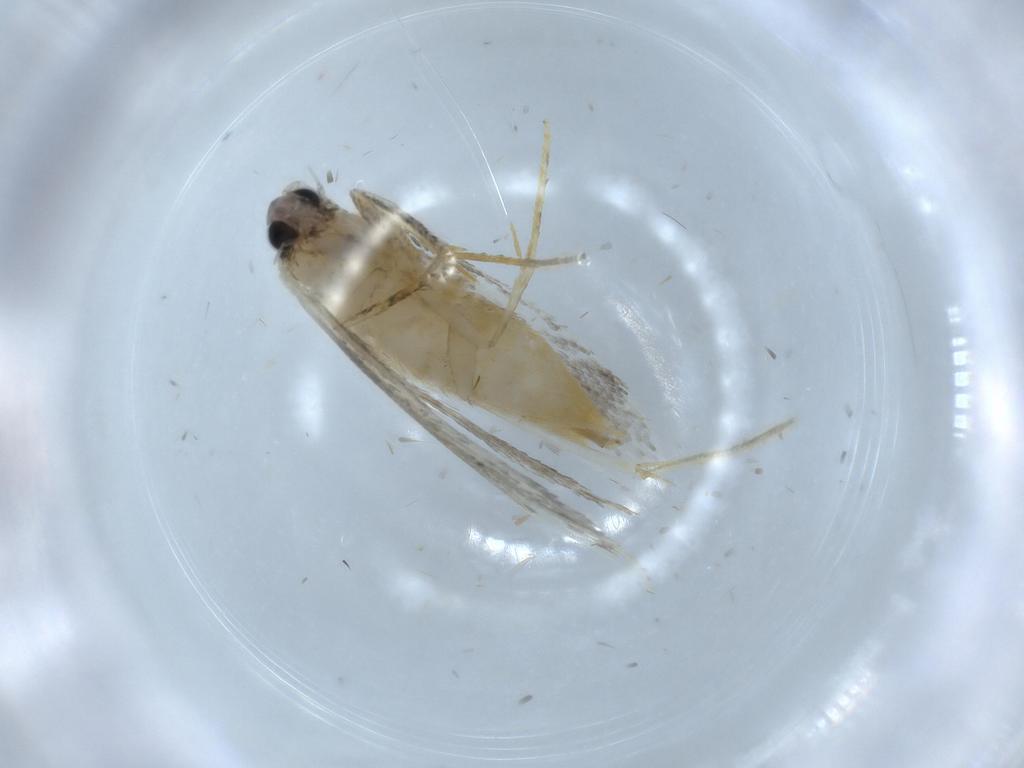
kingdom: Animalia
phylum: Arthropoda
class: Insecta
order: Lepidoptera
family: Tineidae
